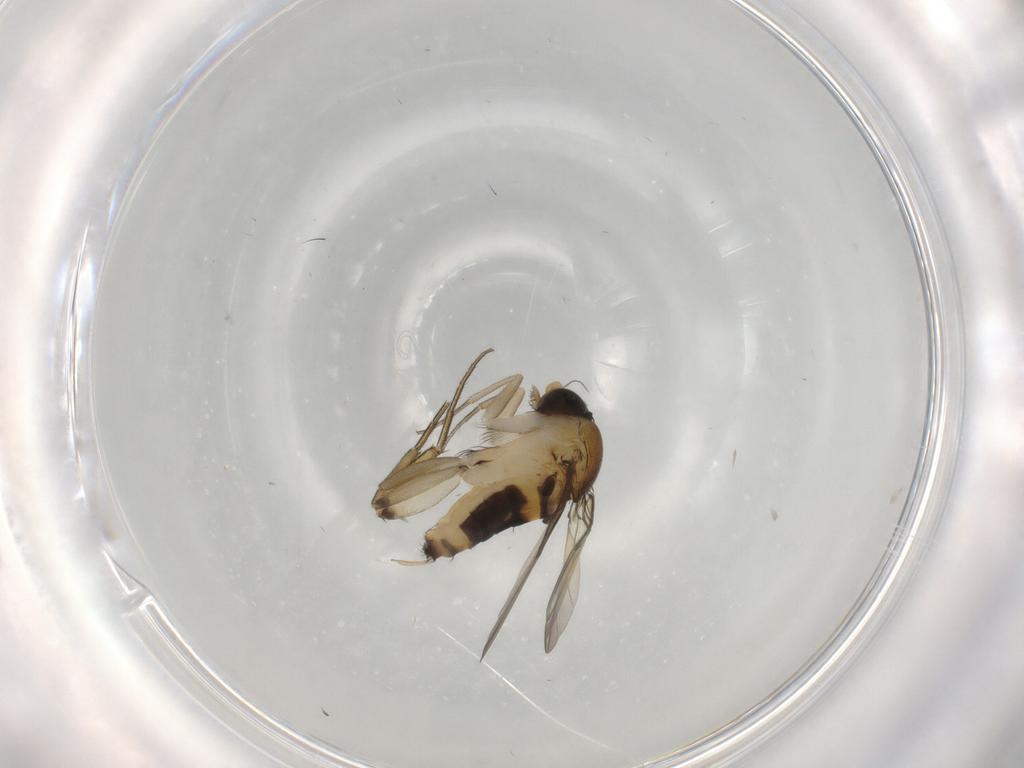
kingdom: Animalia
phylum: Arthropoda
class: Insecta
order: Diptera
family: Phoridae
